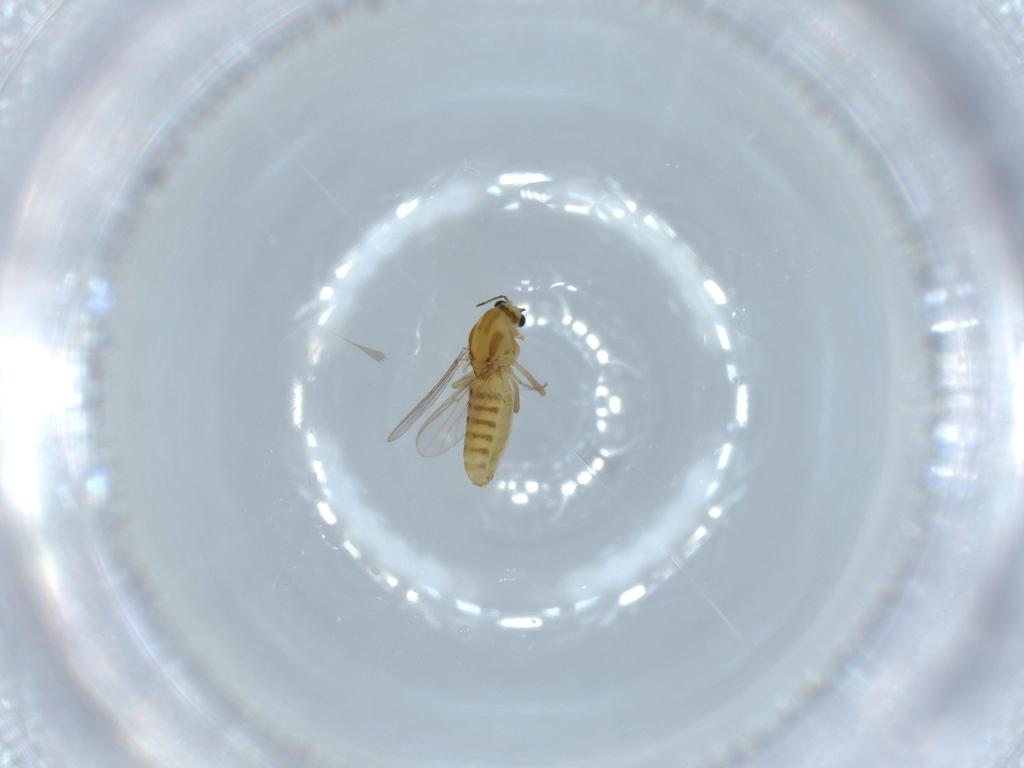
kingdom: Animalia
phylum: Arthropoda
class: Insecta
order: Diptera
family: Chironomidae
